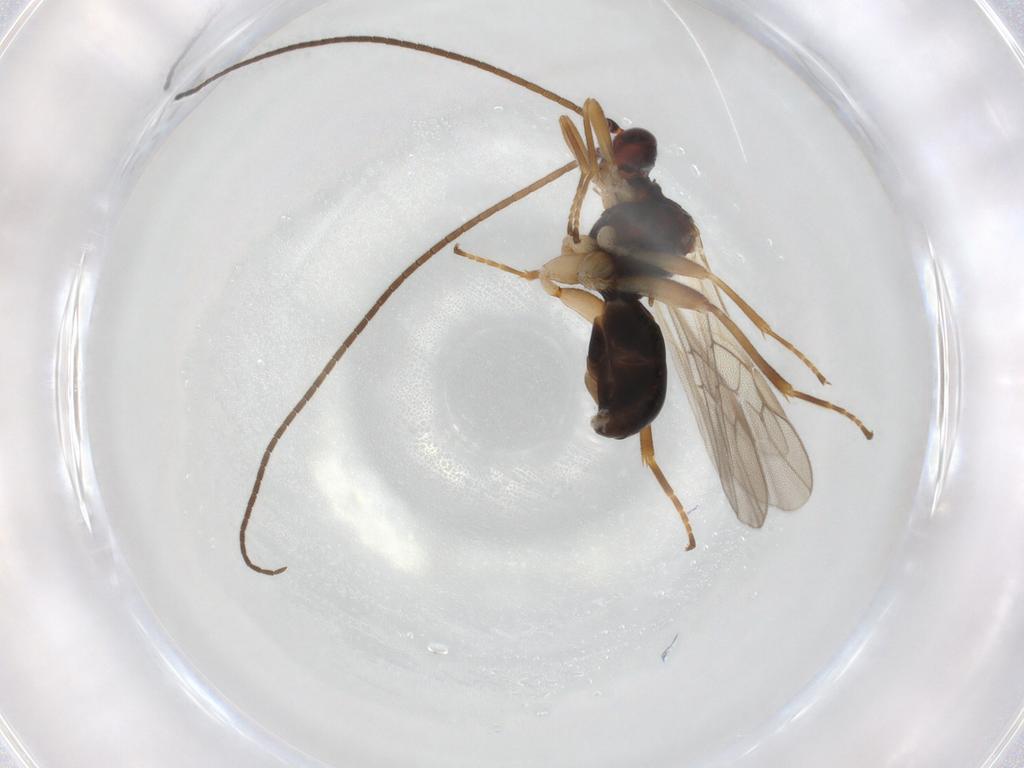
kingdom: Animalia
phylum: Arthropoda
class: Insecta
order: Hymenoptera
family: Braconidae
